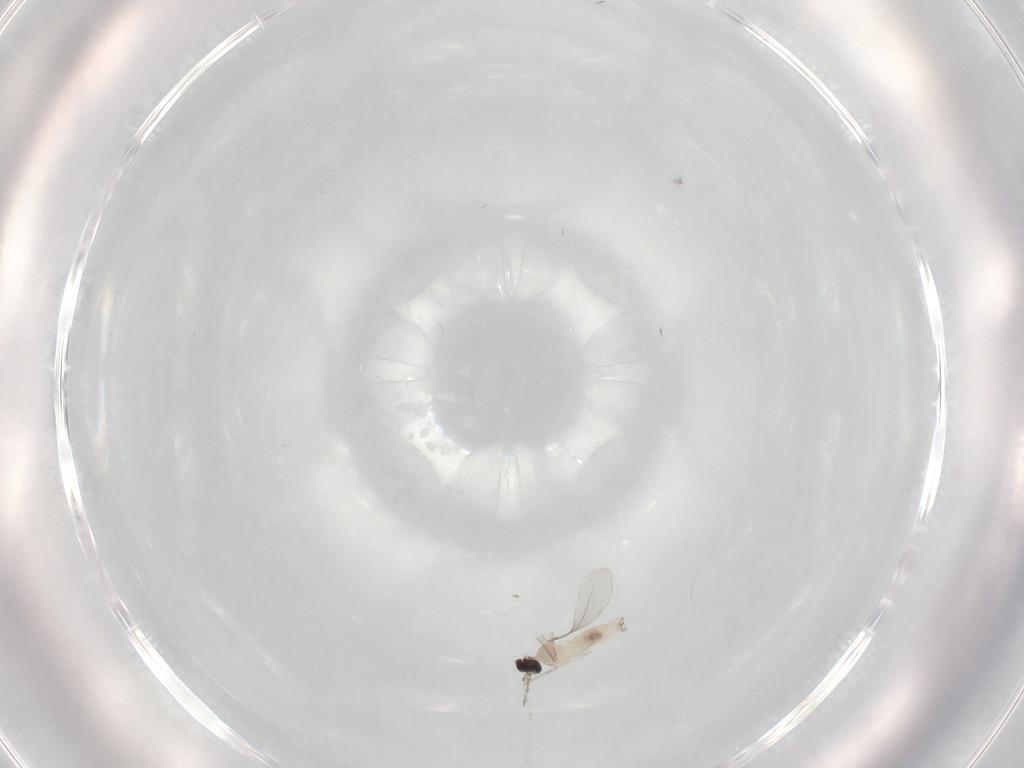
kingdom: Animalia
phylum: Arthropoda
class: Insecta
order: Diptera
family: Cecidomyiidae
